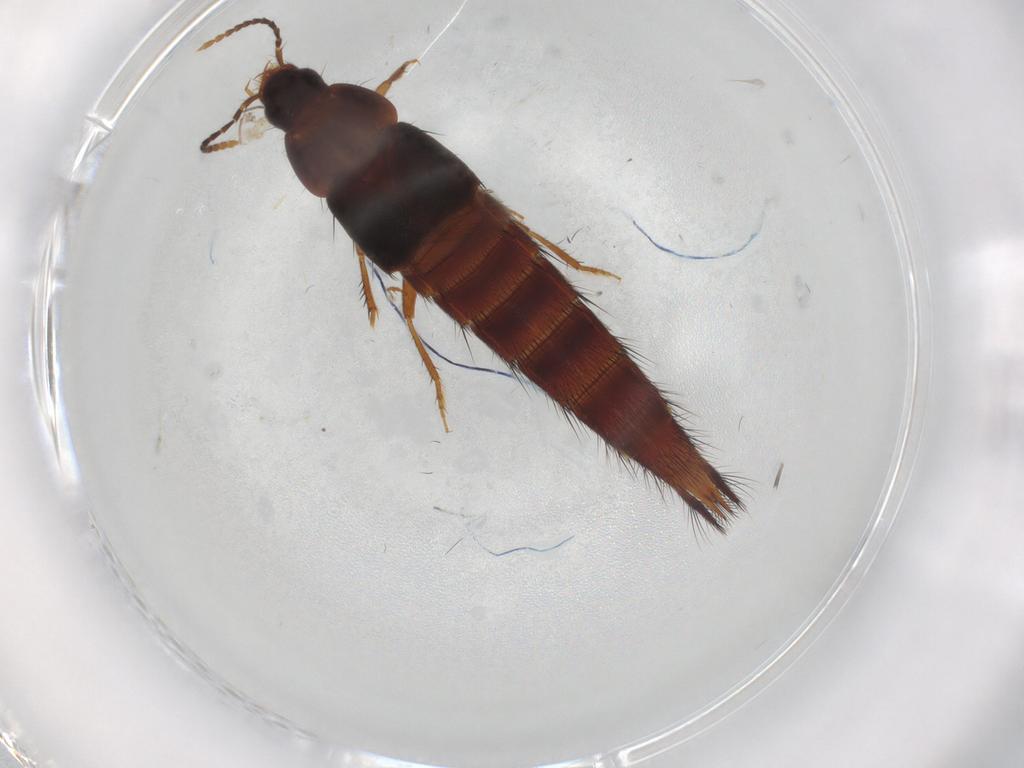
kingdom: Animalia
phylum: Arthropoda
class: Insecta
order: Coleoptera
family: Staphylinidae
